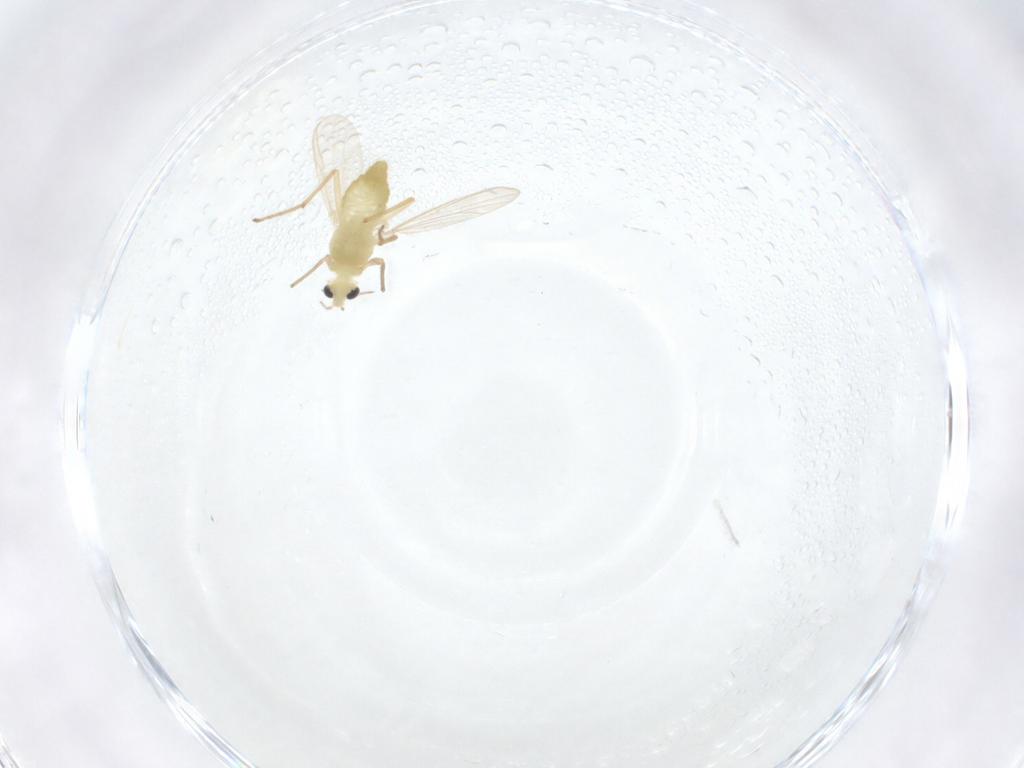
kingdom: Animalia
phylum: Arthropoda
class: Insecta
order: Diptera
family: Chironomidae
